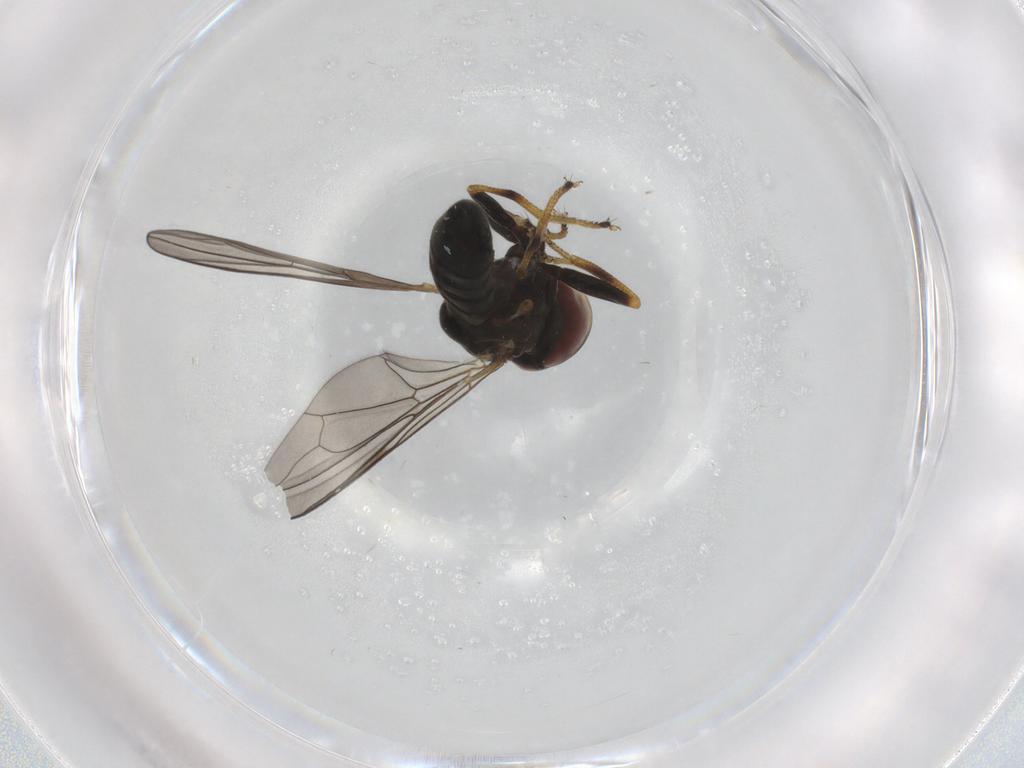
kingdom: Animalia
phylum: Arthropoda
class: Insecta
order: Diptera
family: Pipunculidae
